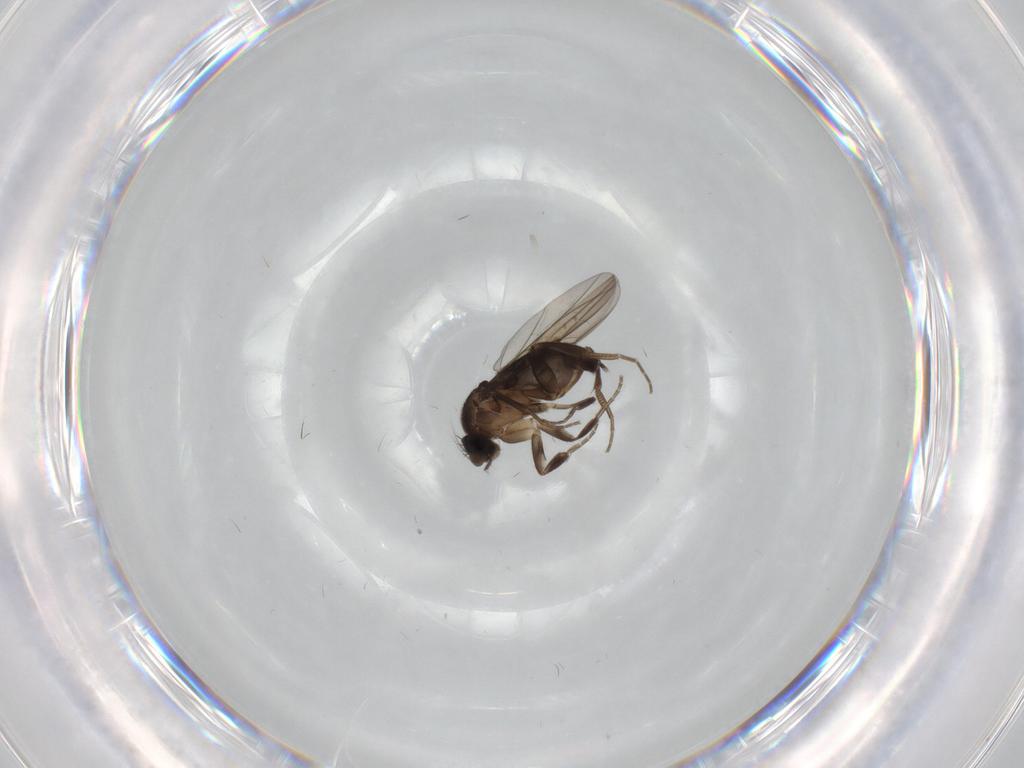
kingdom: Animalia
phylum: Arthropoda
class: Insecta
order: Diptera
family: Phoridae
